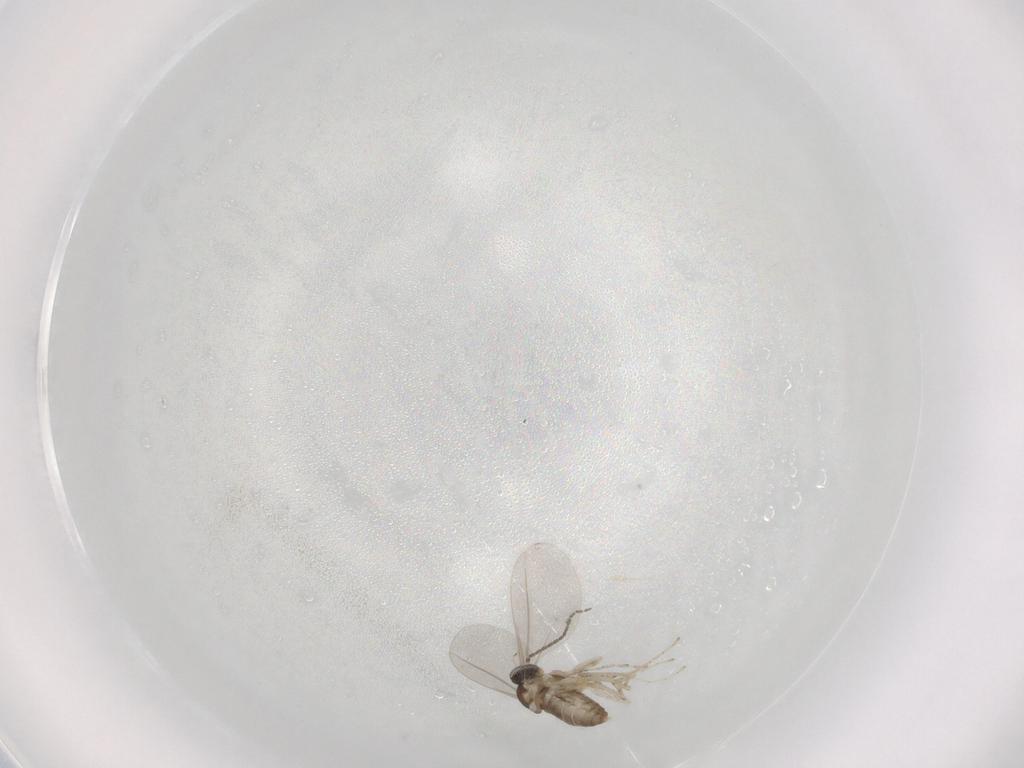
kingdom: Animalia
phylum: Arthropoda
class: Insecta
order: Diptera
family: Cecidomyiidae
